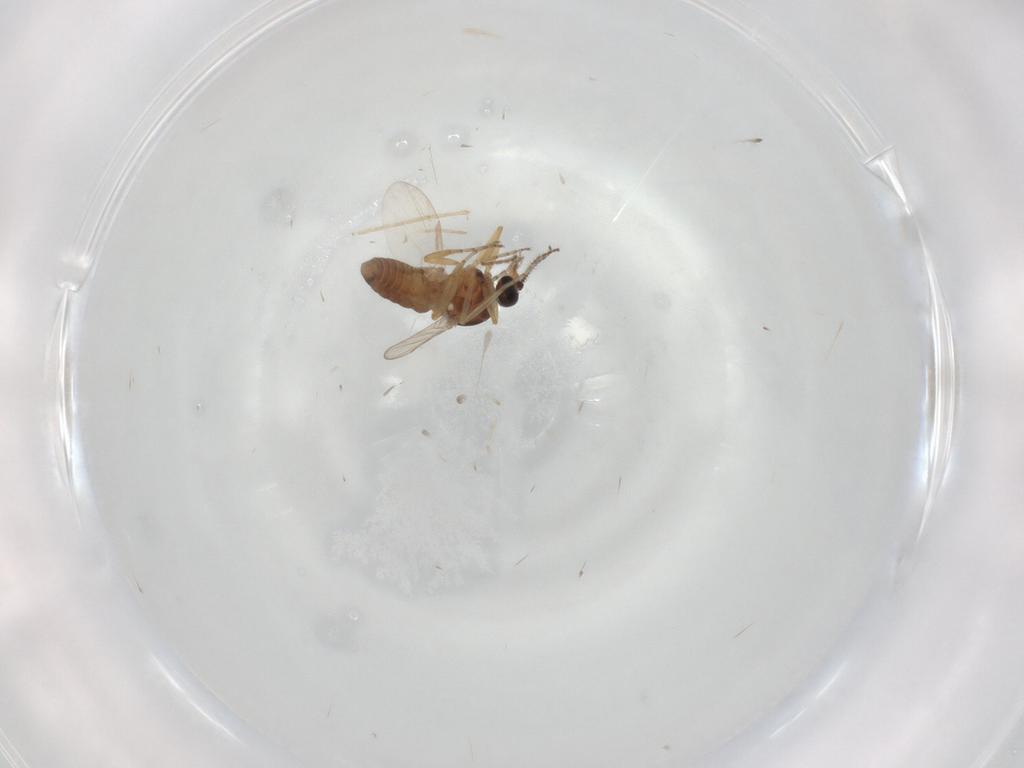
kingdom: Animalia
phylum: Arthropoda
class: Insecta
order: Diptera
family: Ceratopogonidae
